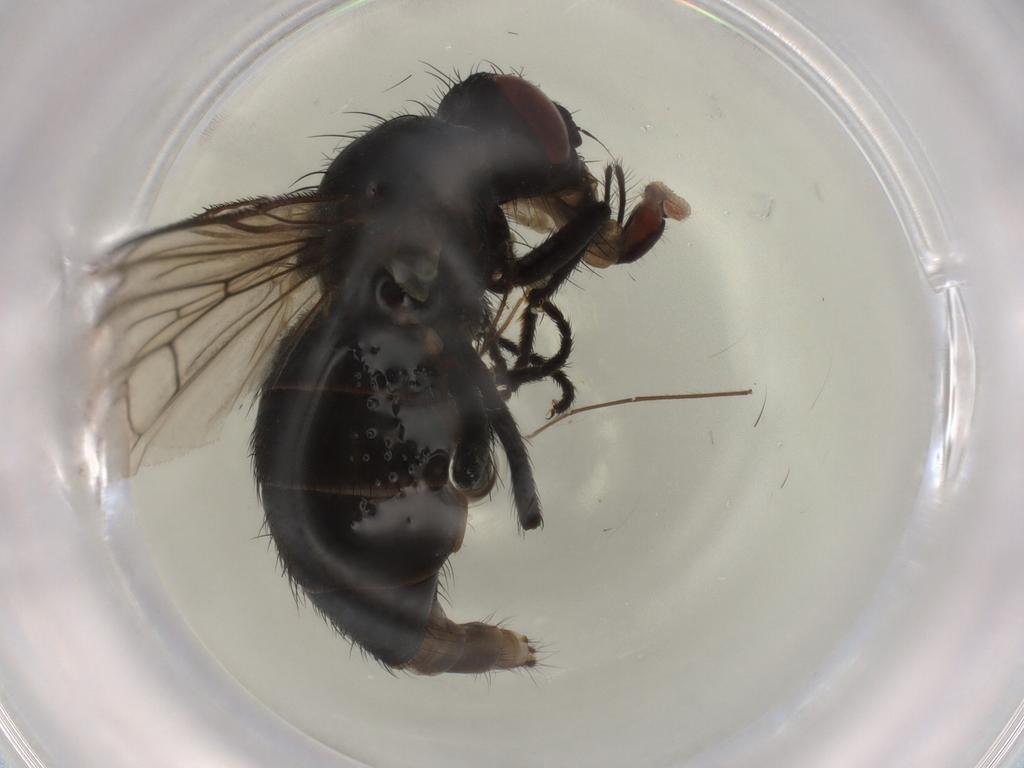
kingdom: Animalia
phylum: Arthropoda
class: Insecta
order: Diptera
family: Muscidae
